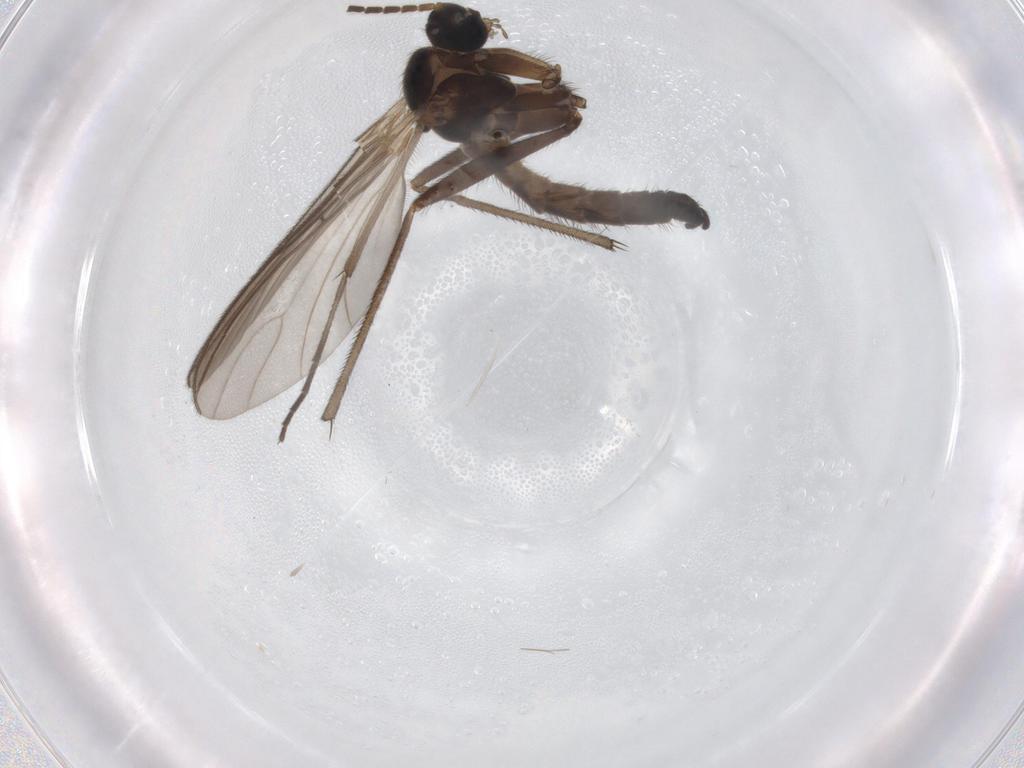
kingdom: Animalia
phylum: Arthropoda
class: Insecta
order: Diptera
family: Sciaridae
